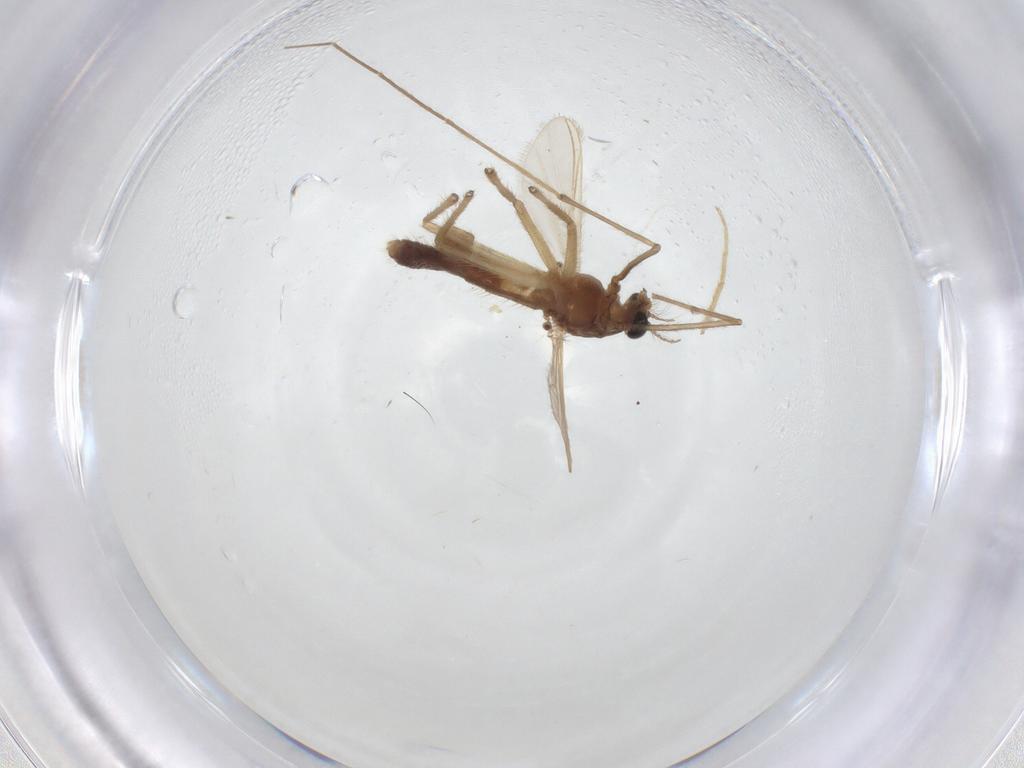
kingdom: Animalia
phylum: Arthropoda
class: Insecta
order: Diptera
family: Chironomidae
